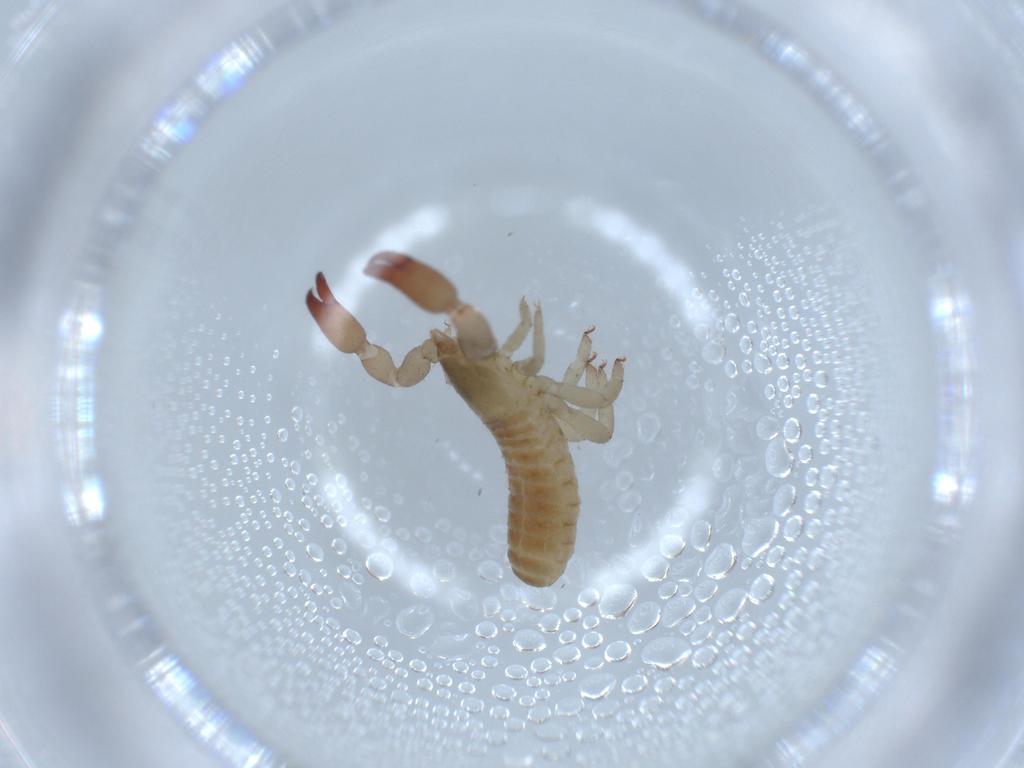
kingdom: Animalia
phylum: Arthropoda
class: Arachnida
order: Pseudoscorpiones
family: Atemnidae
